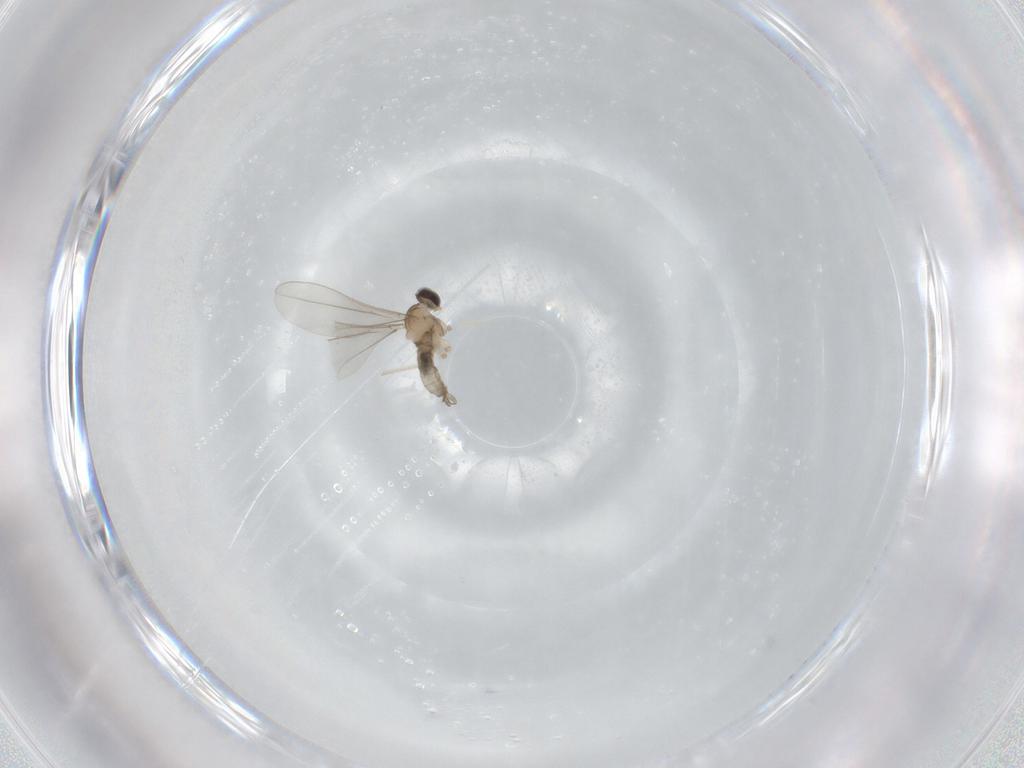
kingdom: Animalia
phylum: Arthropoda
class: Insecta
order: Diptera
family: Cecidomyiidae
